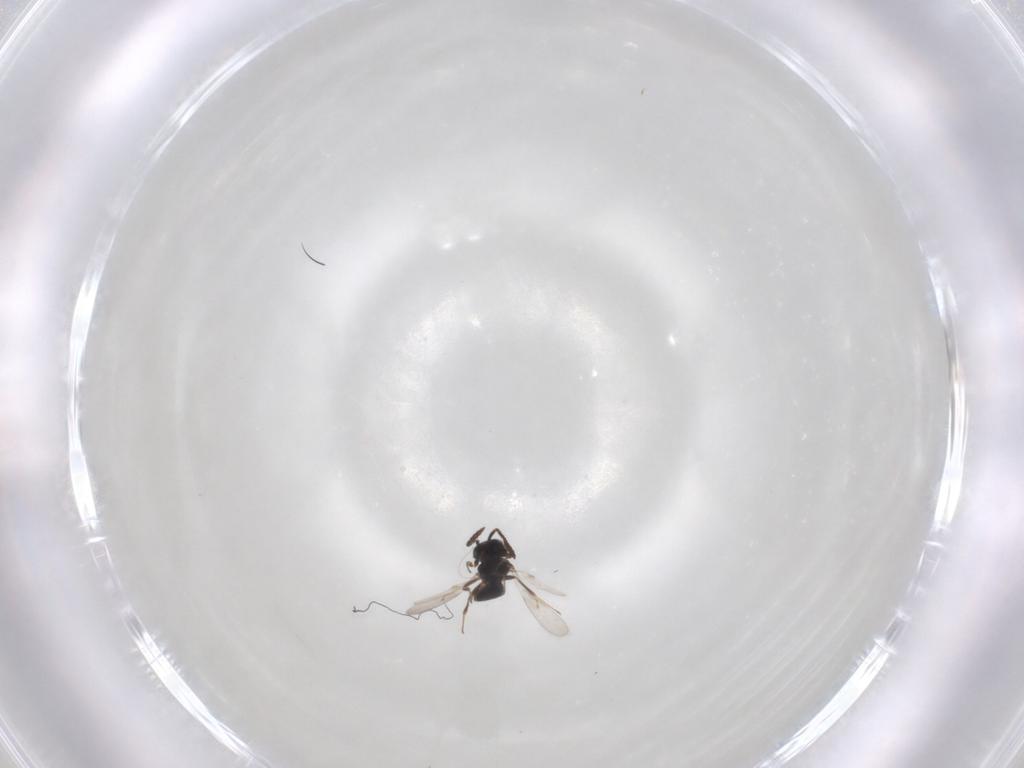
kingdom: Animalia
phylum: Arthropoda
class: Insecta
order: Hymenoptera
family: Scelionidae
